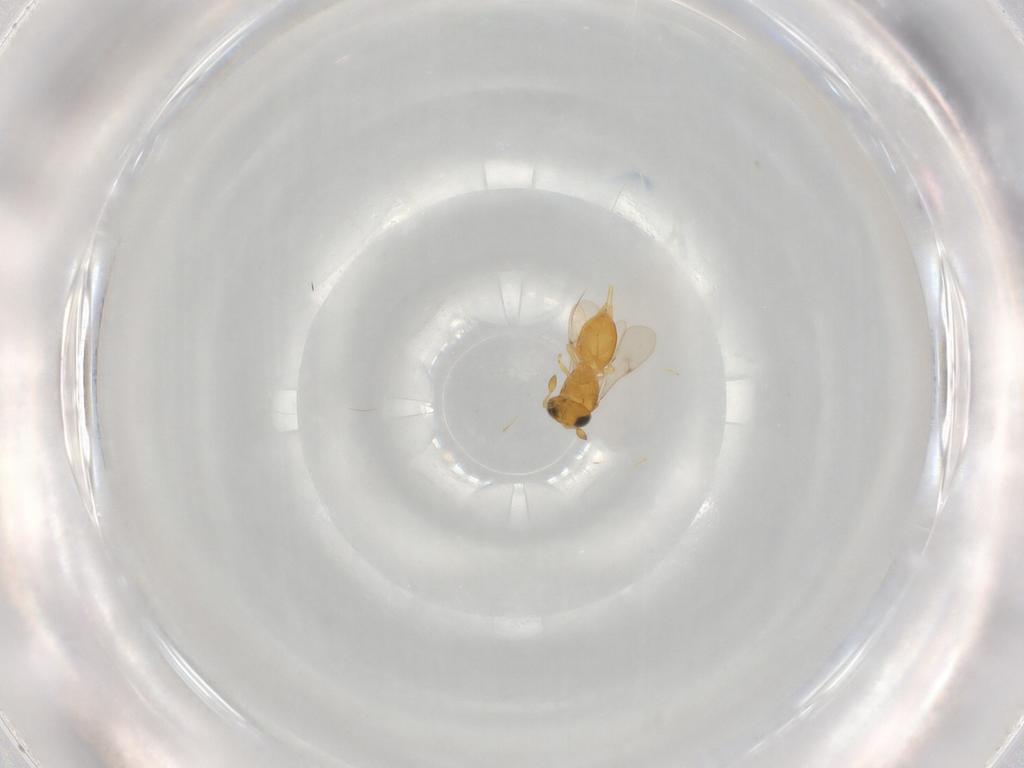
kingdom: Animalia
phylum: Arthropoda
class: Insecta
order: Hymenoptera
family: Scelionidae
